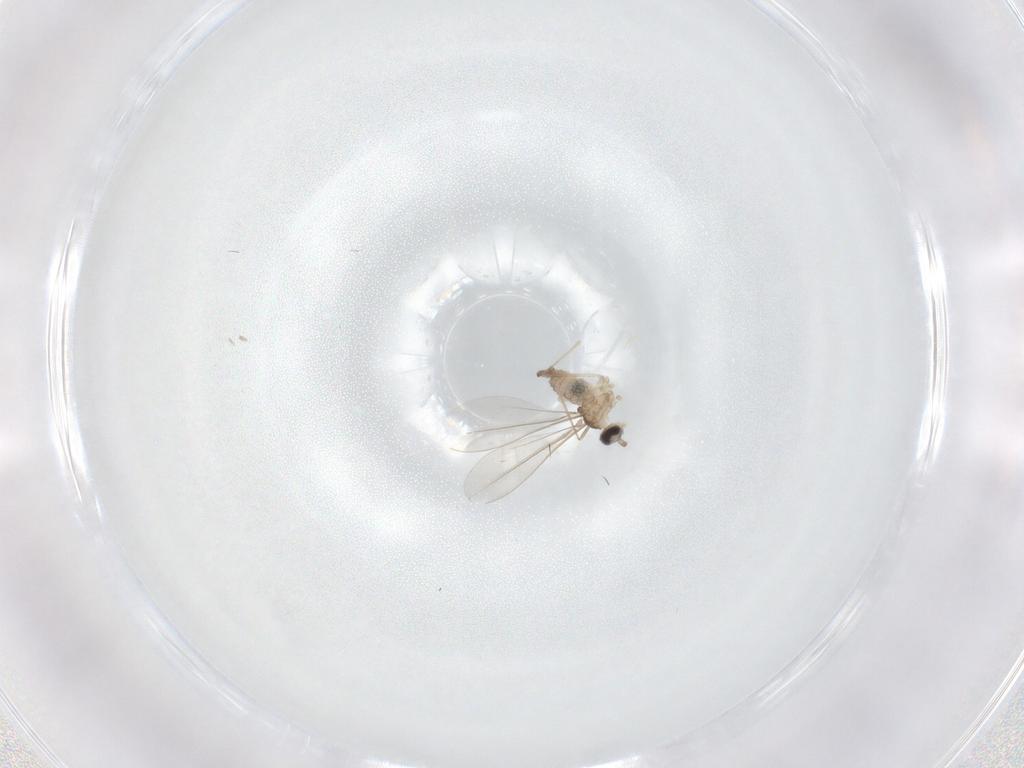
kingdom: Animalia
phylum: Arthropoda
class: Insecta
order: Diptera
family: Cecidomyiidae
